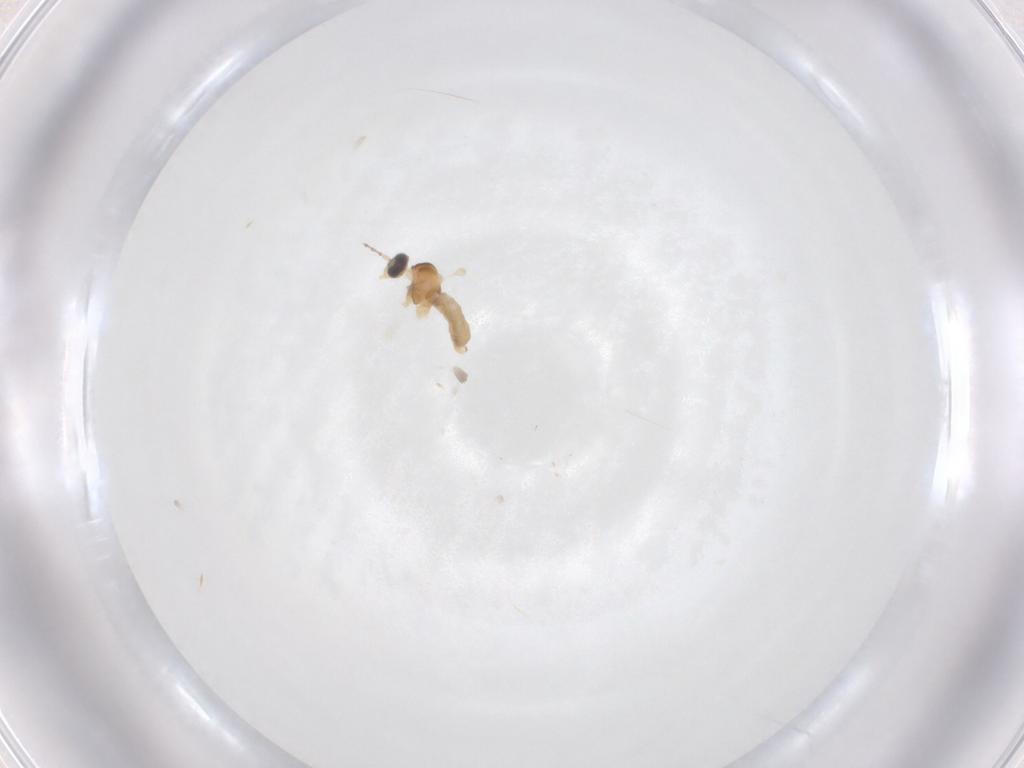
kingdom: Animalia
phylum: Arthropoda
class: Insecta
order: Diptera
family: Cecidomyiidae
